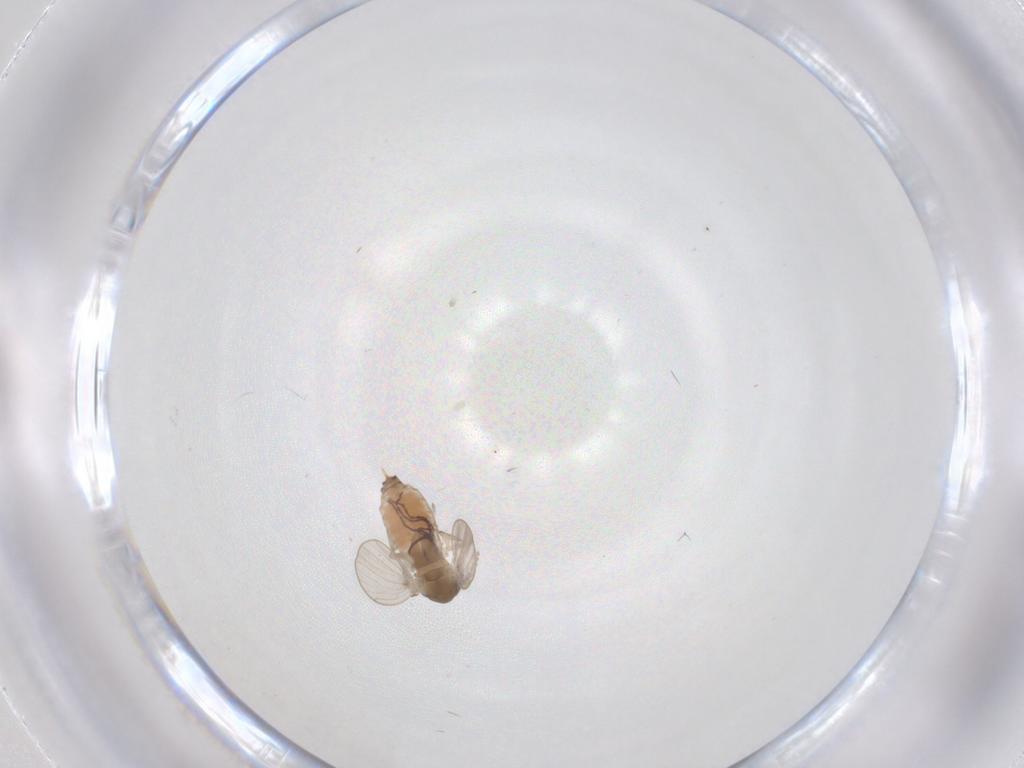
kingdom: Animalia
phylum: Arthropoda
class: Insecta
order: Diptera
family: Psychodidae
